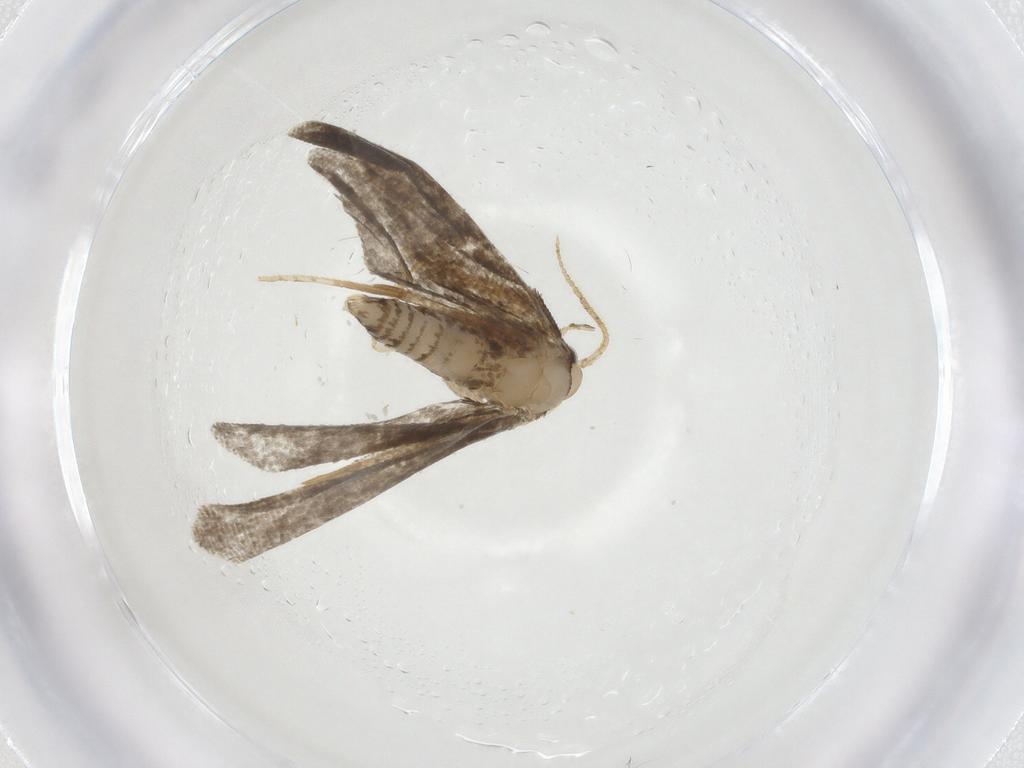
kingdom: Animalia
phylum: Arthropoda
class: Insecta
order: Lepidoptera
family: Psychidae
